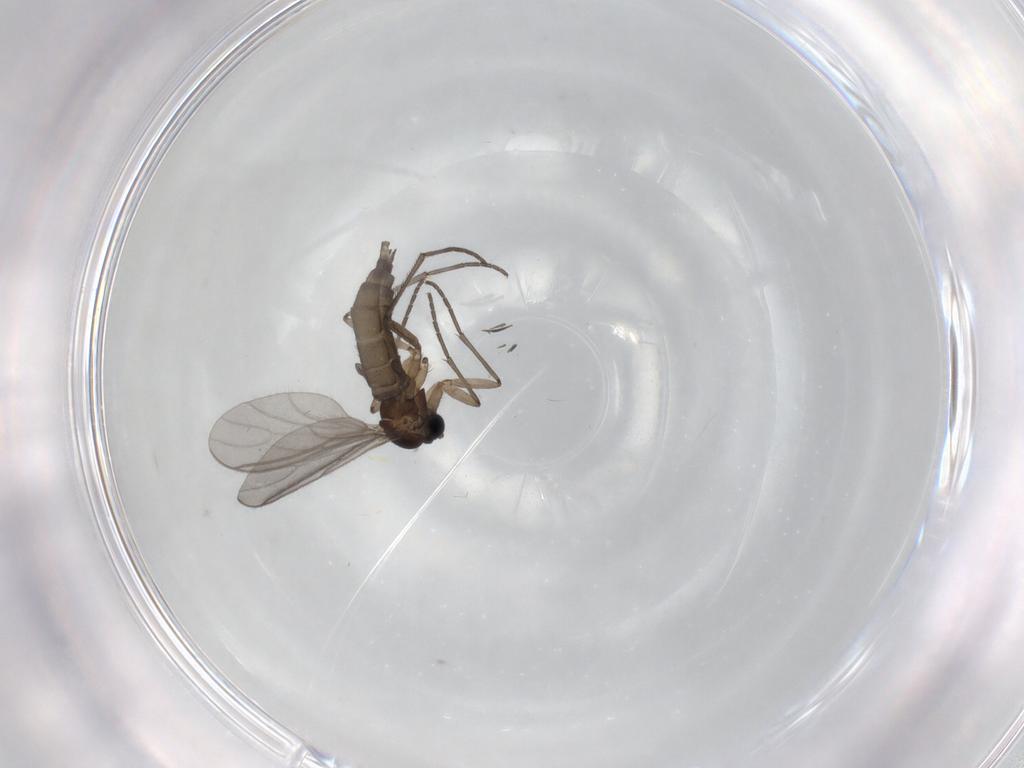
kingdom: Animalia
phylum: Arthropoda
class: Insecta
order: Diptera
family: Sciaridae
